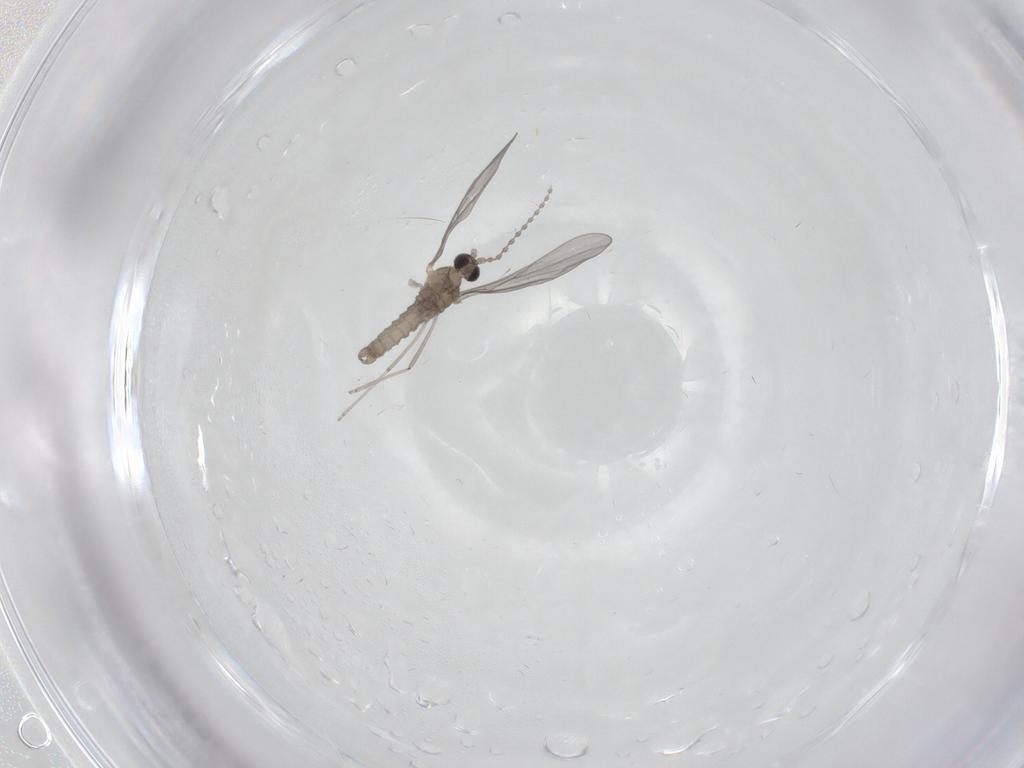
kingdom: Animalia
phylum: Arthropoda
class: Insecta
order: Diptera
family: Cecidomyiidae
